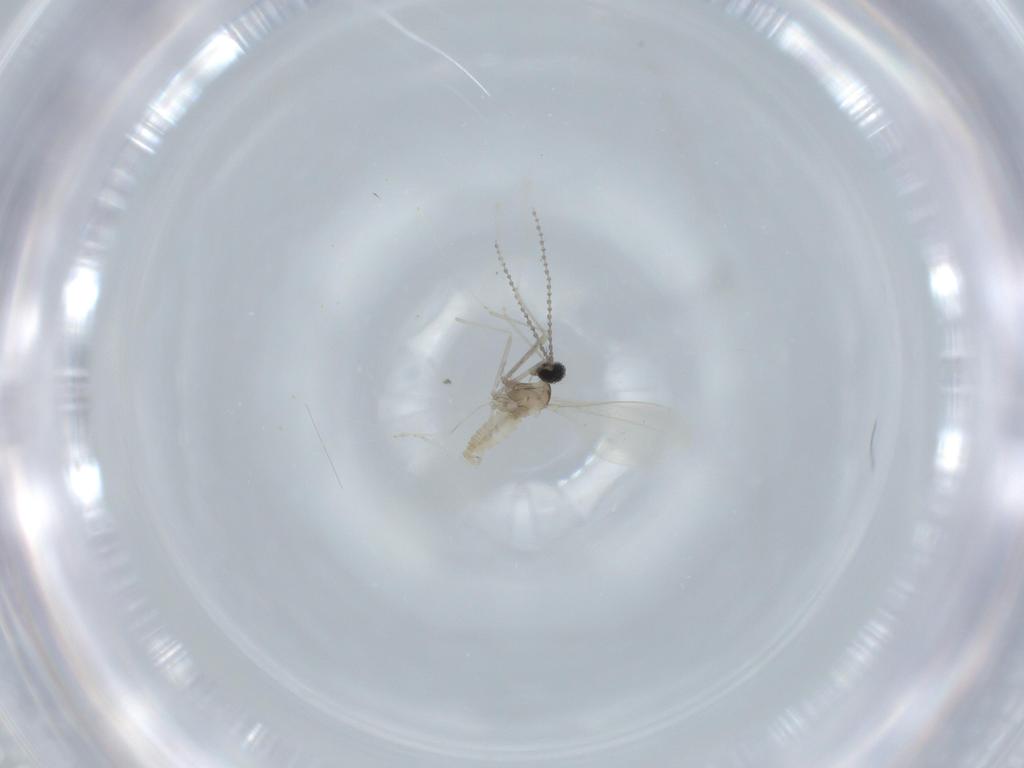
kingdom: Animalia
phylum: Arthropoda
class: Insecta
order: Diptera
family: Cecidomyiidae
